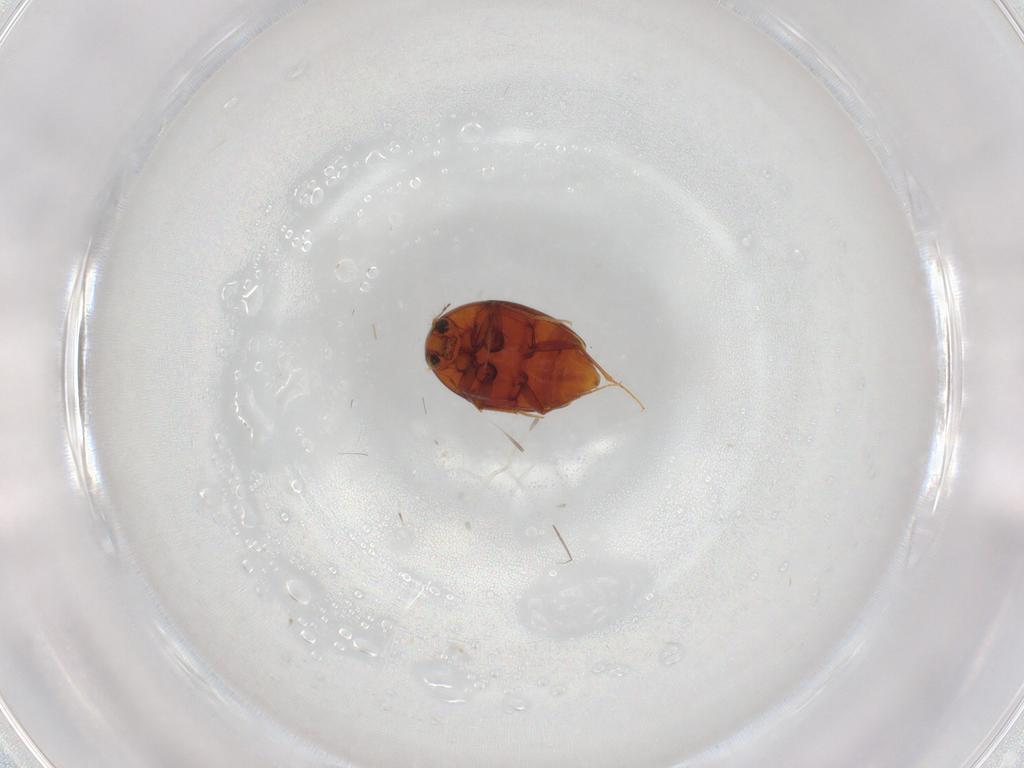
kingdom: Animalia
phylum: Arthropoda
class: Insecta
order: Coleoptera
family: Staphylinidae
